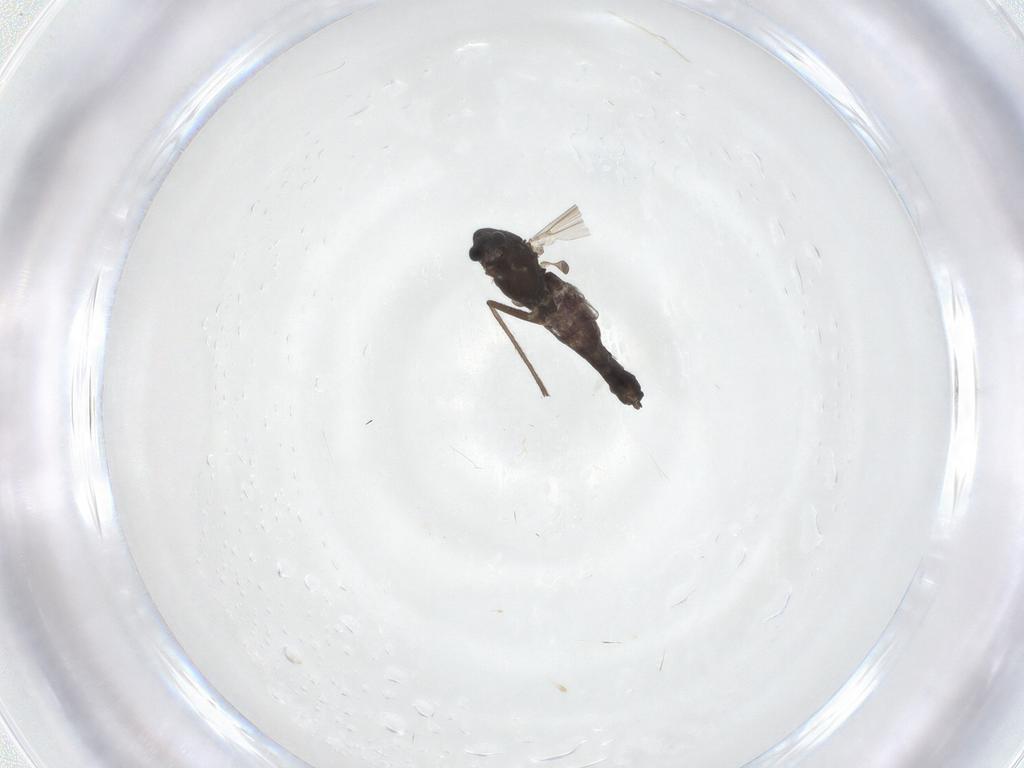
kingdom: Animalia
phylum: Arthropoda
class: Insecta
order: Diptera
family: Chironomidae
